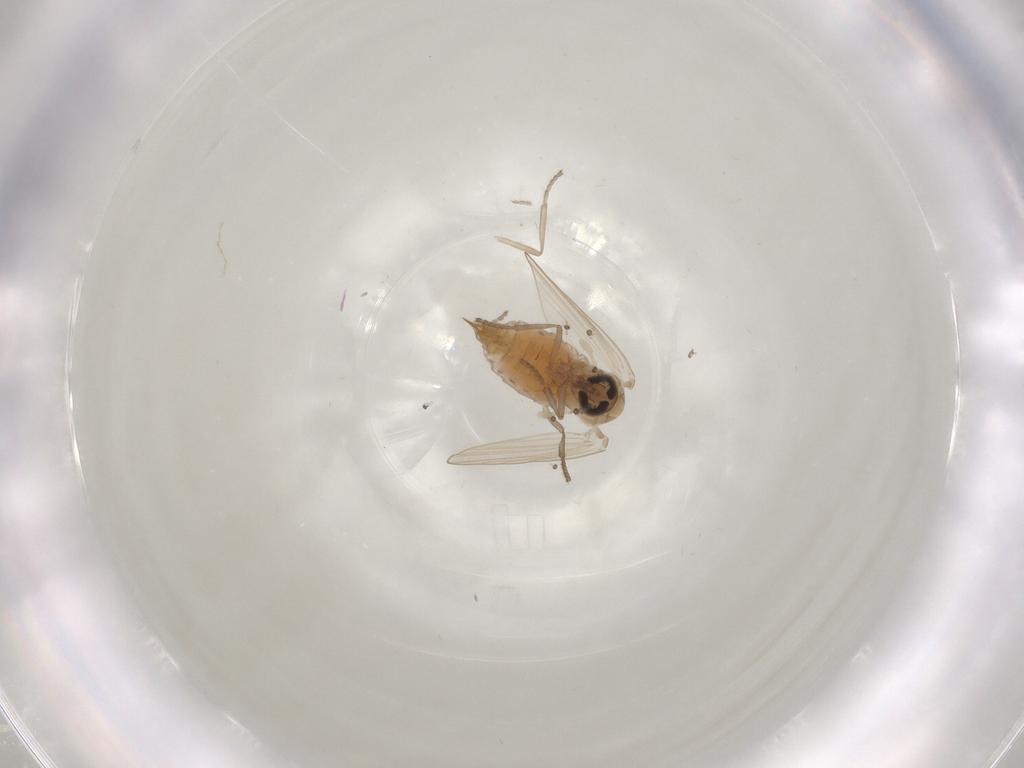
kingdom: Animalia
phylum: Arthropoda
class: Insecta
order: Diptera
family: Psychodidae
